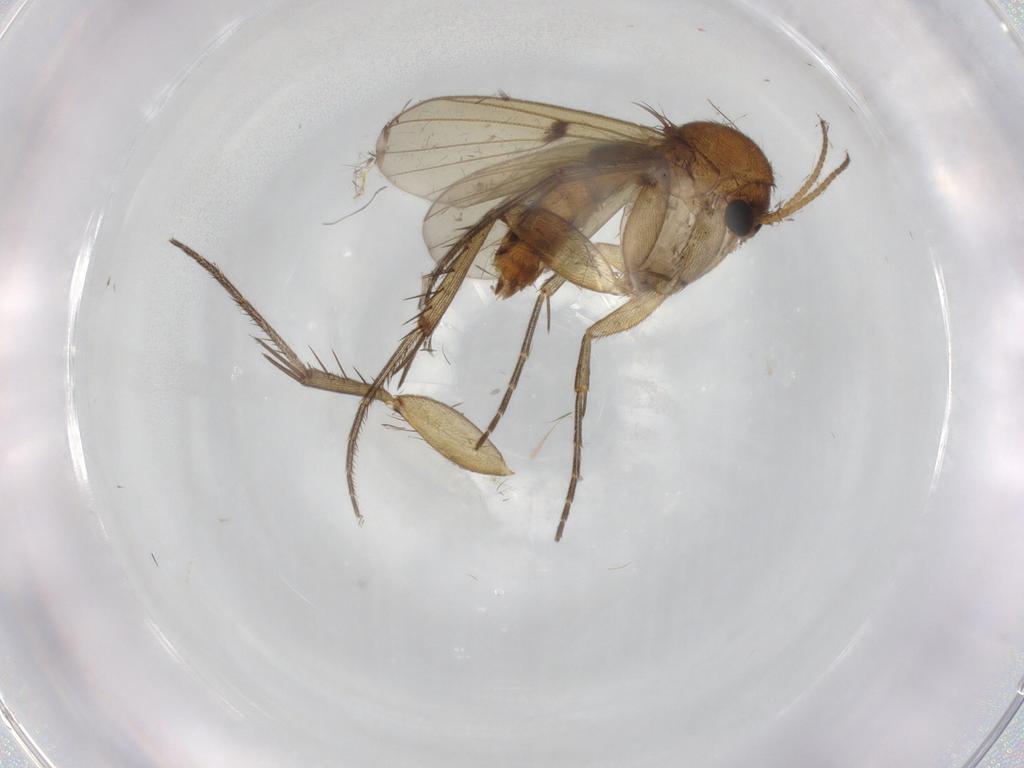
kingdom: Animalia
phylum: Arthropoda
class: Insecta
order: Diptera
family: Mycetophilidae
